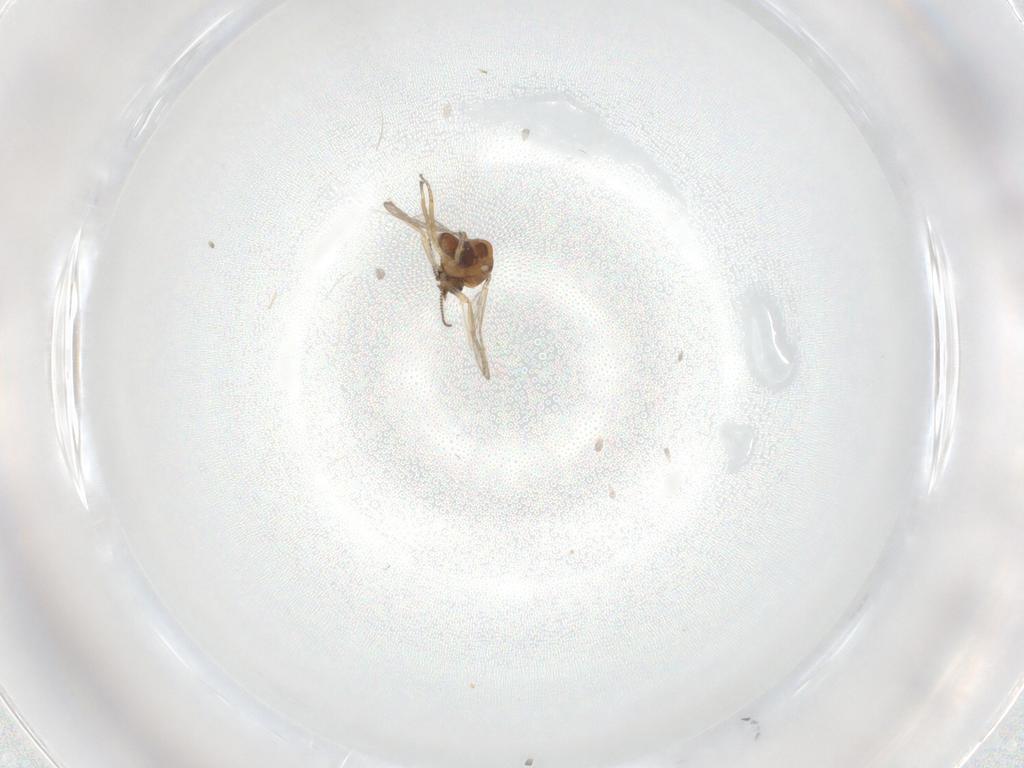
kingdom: Animalia
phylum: Arthropoda
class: Insecta
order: Diptera
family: Ceratopogonidae
